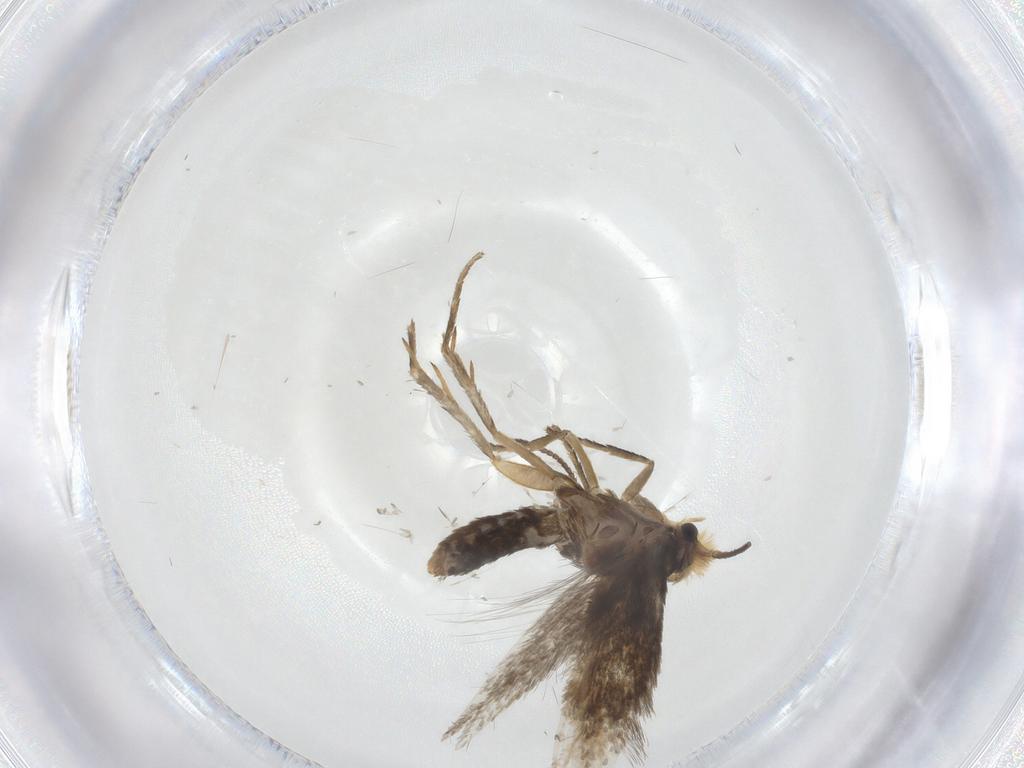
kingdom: Animalia
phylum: Arthropoda
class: Insecta
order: Lepidoptera
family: Nepticulidae
